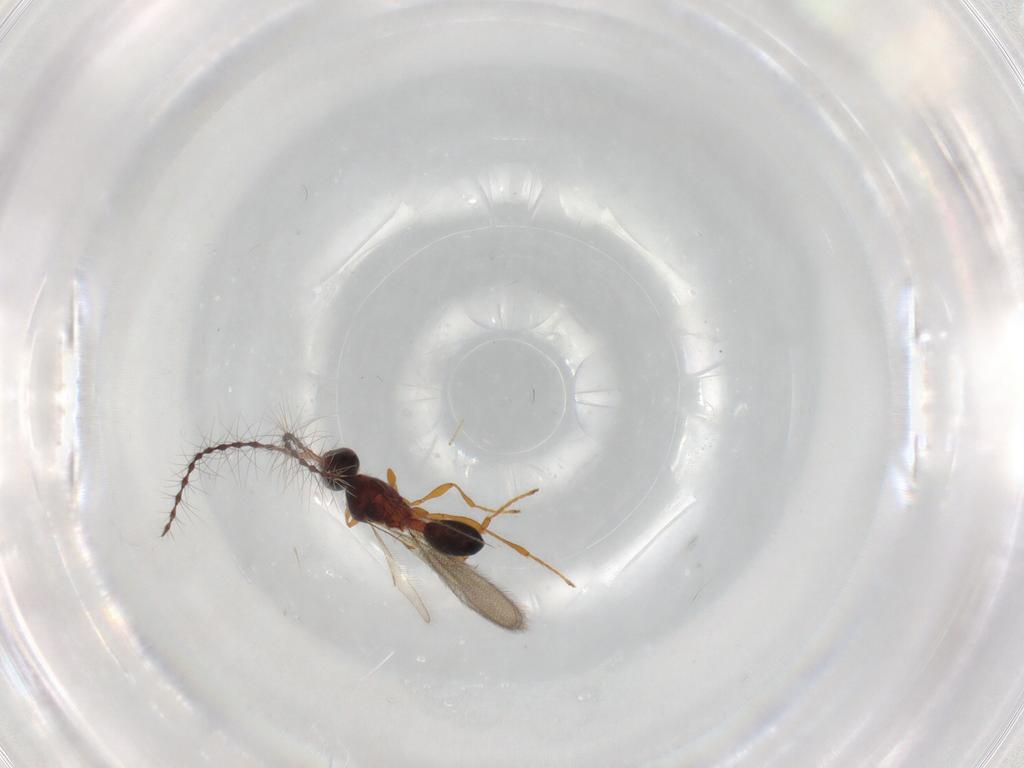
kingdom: Animalia
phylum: Arthropoda
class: Insecta
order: Hymenoptera
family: Diapriidae
